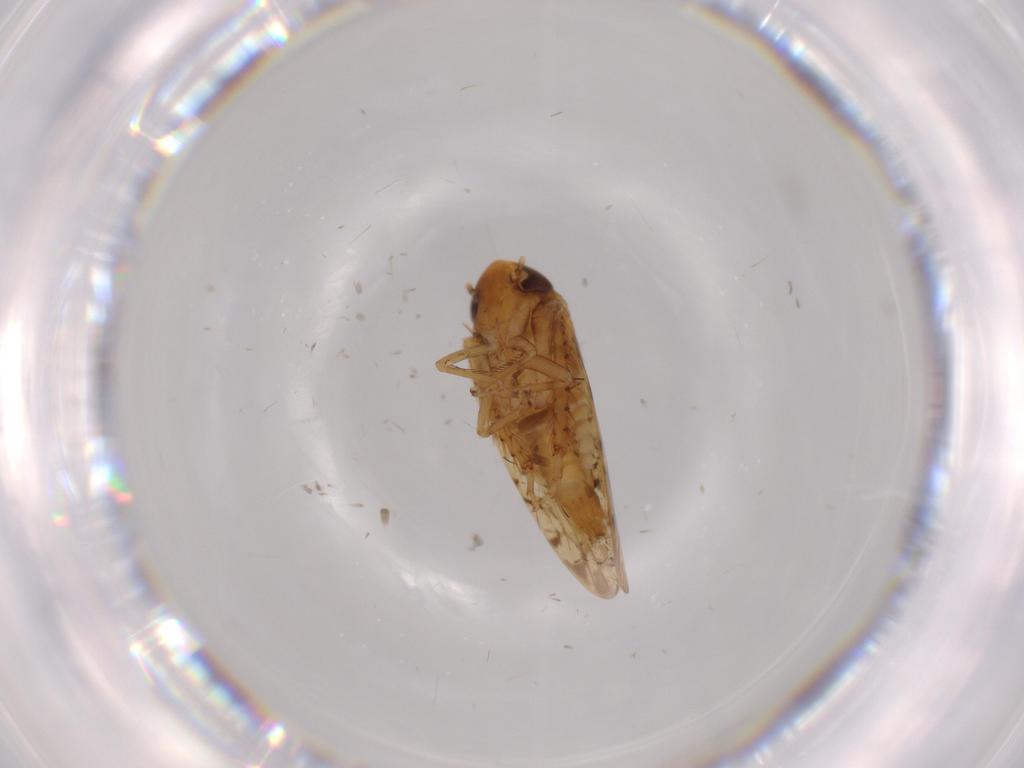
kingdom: Animalia
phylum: Arthropoda
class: Insecta
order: Hemiptera
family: Cicadellidae
